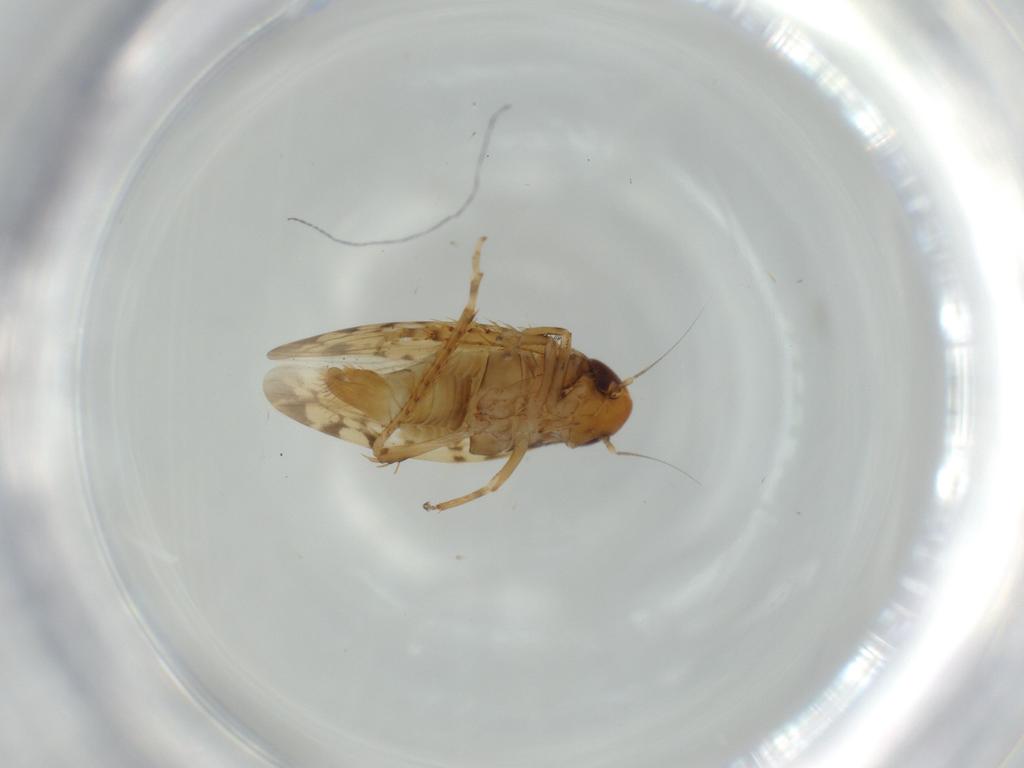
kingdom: Animalia
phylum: Arthropoda
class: Insecta
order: Hemiptera
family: Cicadellidae
